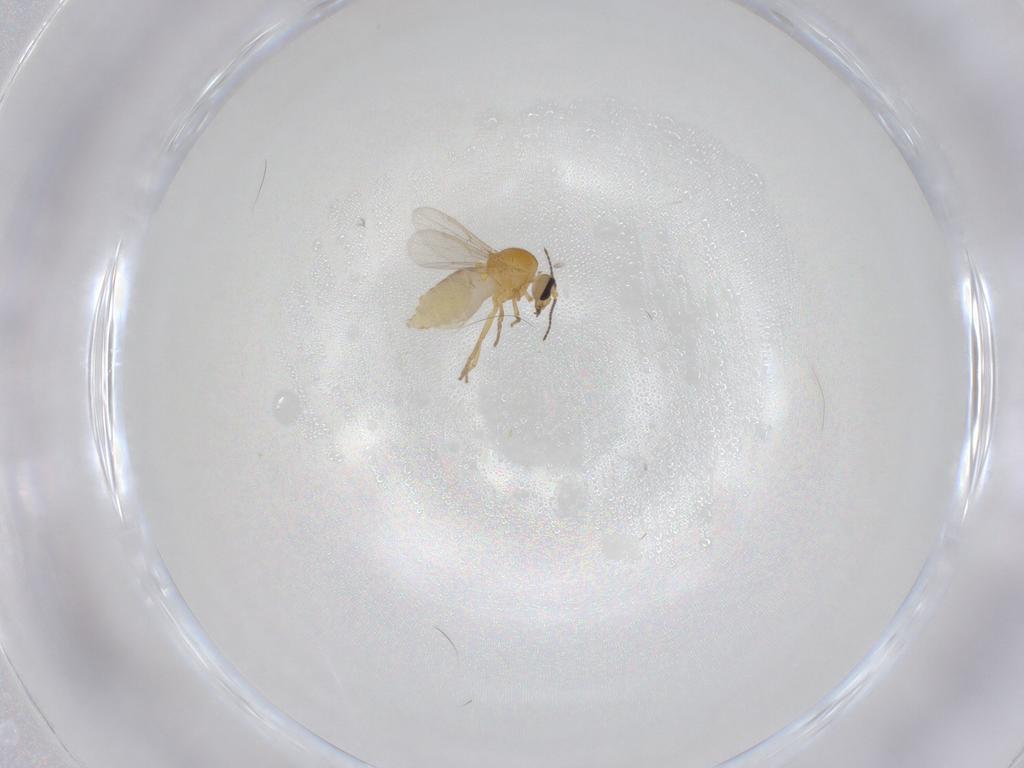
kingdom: Animalia
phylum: Arthropoda
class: Insecta
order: Diptera
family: Ceratopogonidae
